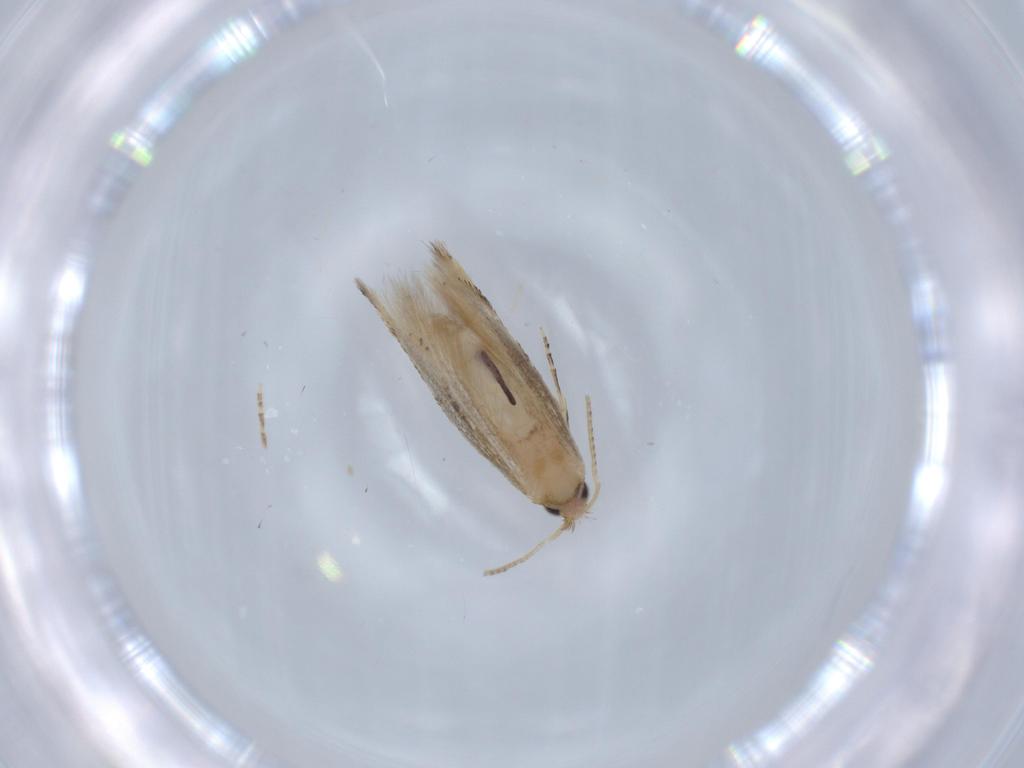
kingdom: Animalia
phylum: Arthropoda
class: Insecta
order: Lepidoptera
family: Bucculatricidae
